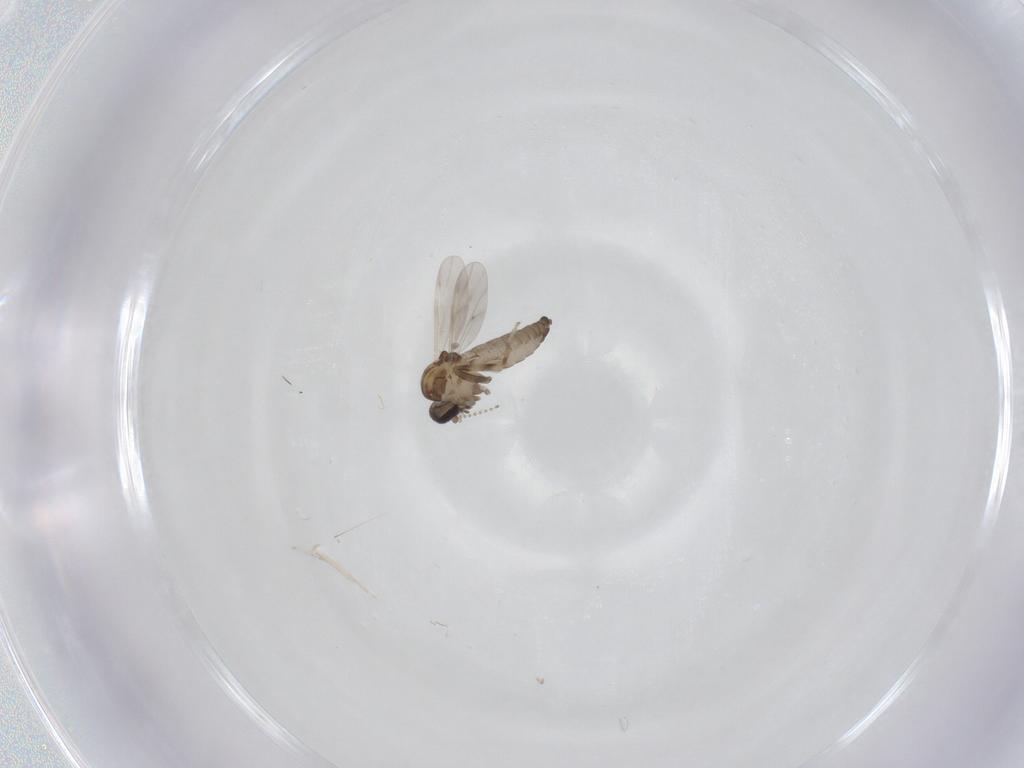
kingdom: Animalia
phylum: Arthropoda
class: Insecta
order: Diptera
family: Ceratopogonidae
